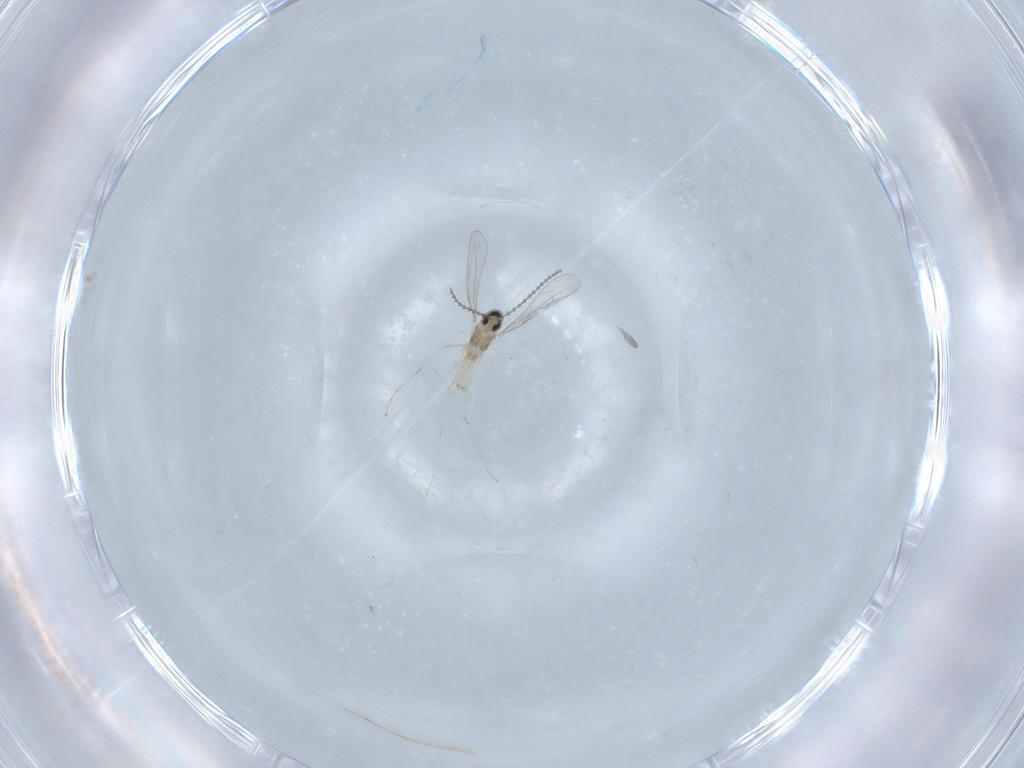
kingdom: Animalia
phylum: Arthropoda
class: Insecta
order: Diptera
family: Cecidomyiidae
